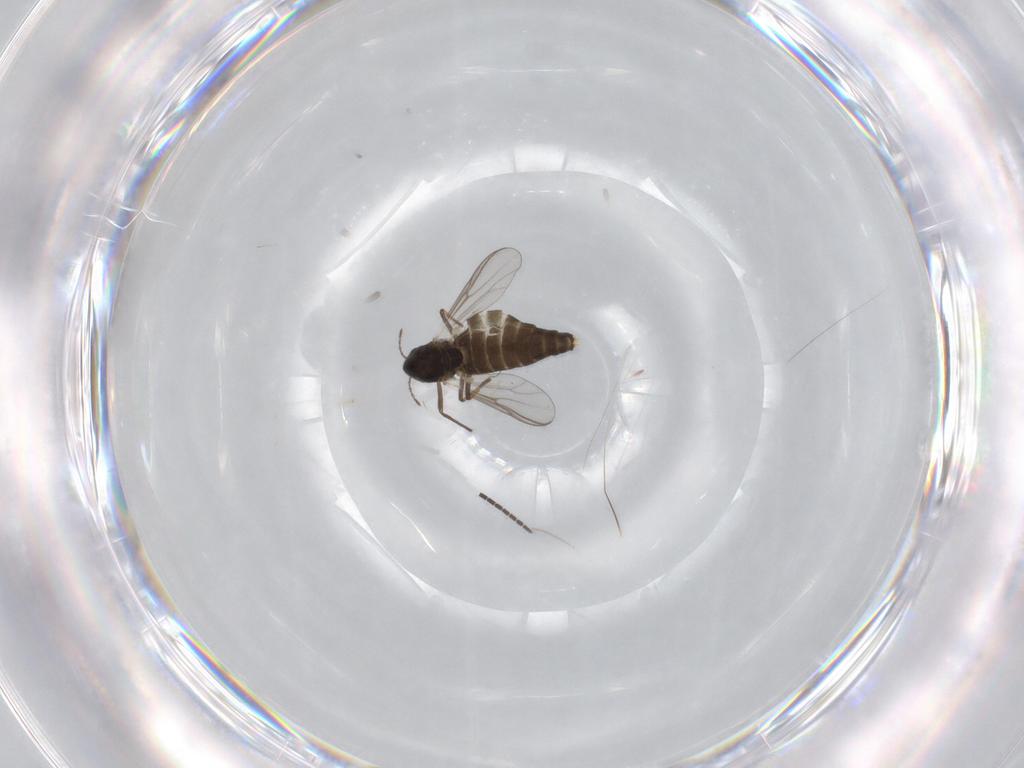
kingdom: Animalia
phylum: Arthropoda
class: Insecta
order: Diptera
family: Chironomidae
